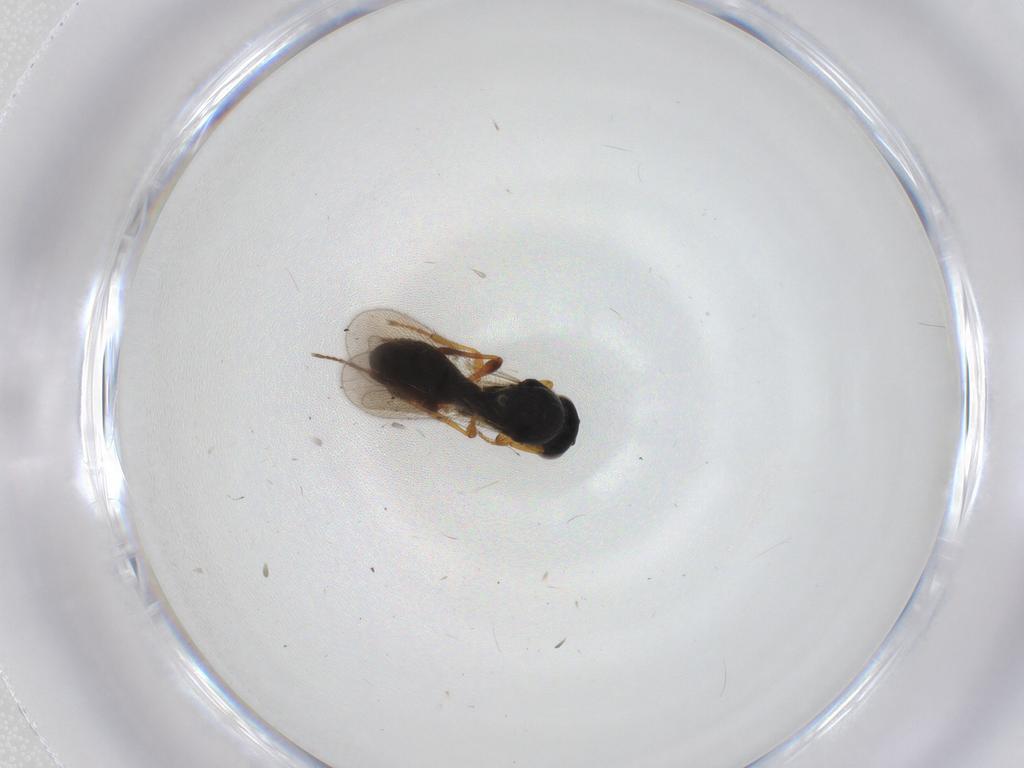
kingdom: Animalia
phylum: Arthropoda
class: Insecta
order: Hymenoptera
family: Platygastridae
